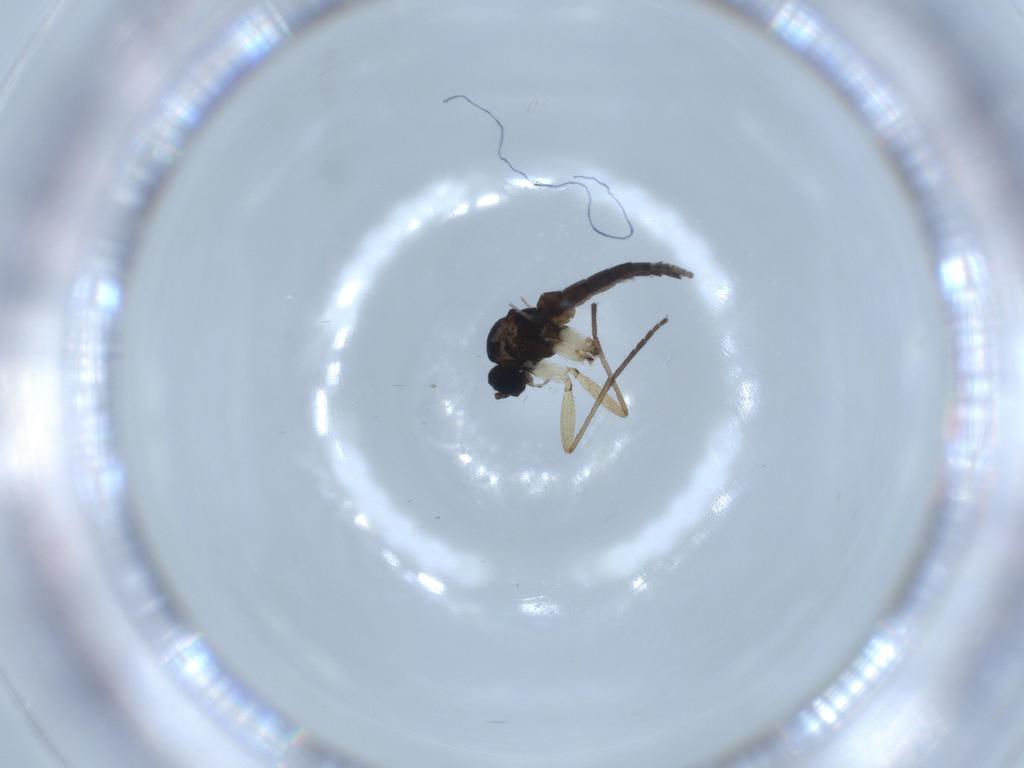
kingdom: Animalia
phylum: Arthropoda
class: Insecta
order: Diptera
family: Sciaridae
